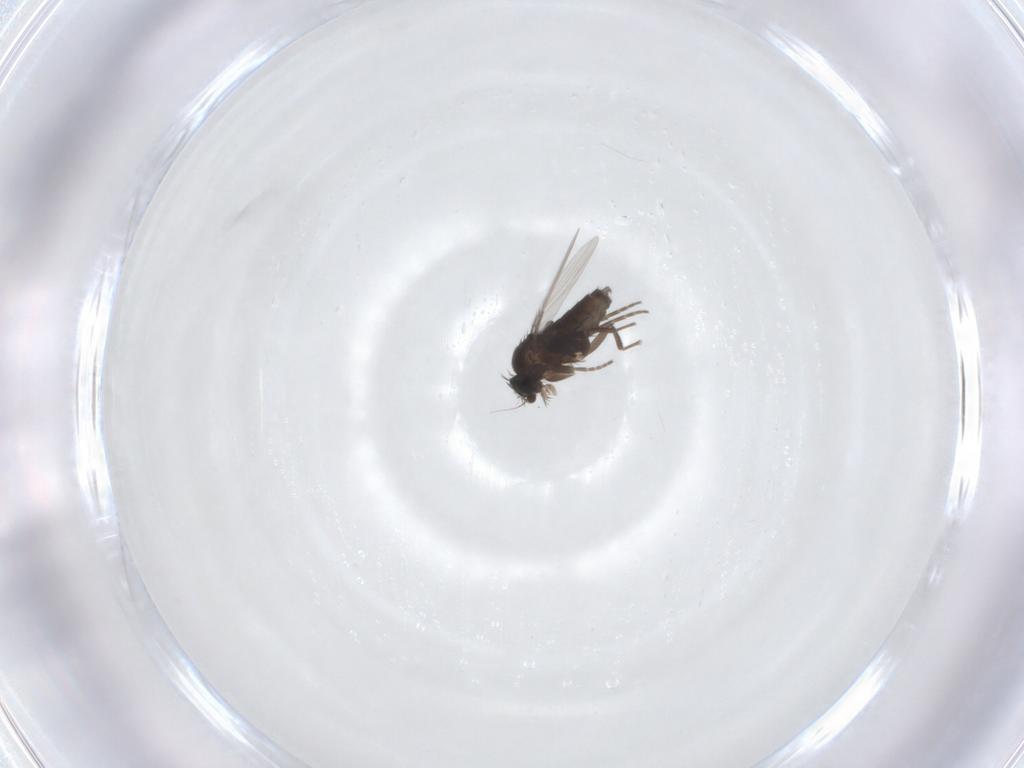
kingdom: Animalia
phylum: Arthropoda
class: Insecta
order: Diptera
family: Phoridae
